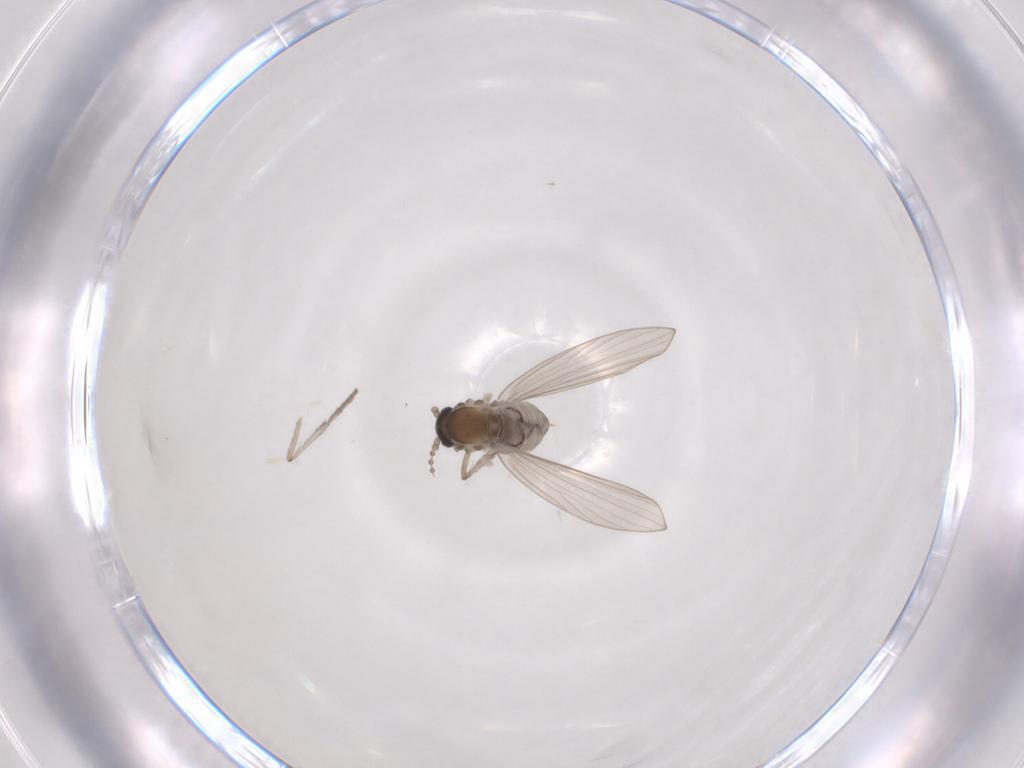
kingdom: Animalia
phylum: Arthropoda
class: Insecta
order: Diptera
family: Psychodidae
